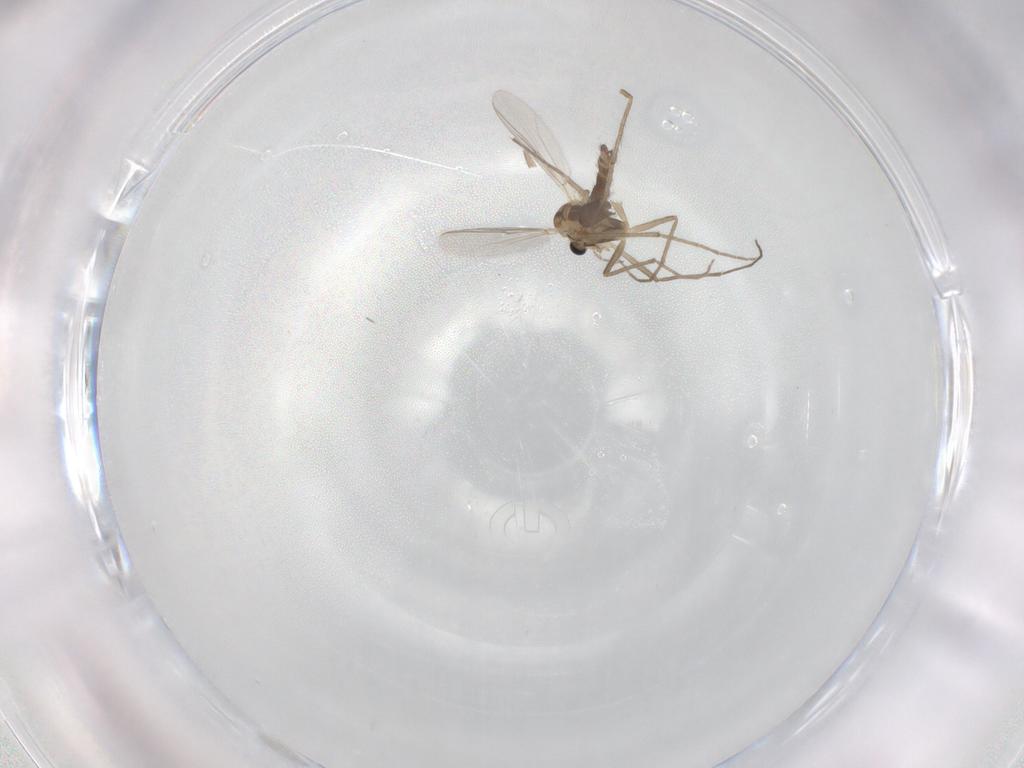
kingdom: Animalia
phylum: Arthropoda
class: Insecta
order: Diptera
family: Chironomidae
